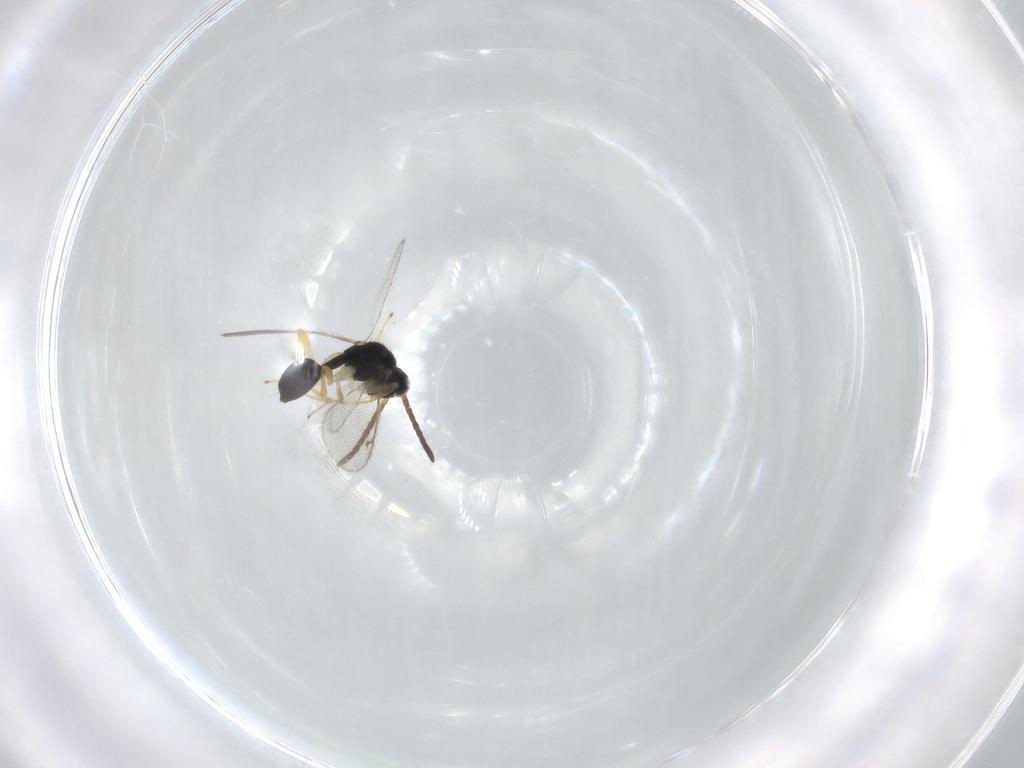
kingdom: Animalia
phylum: Arthropoda
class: Insecta
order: Hymenoptera
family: Diparidae
